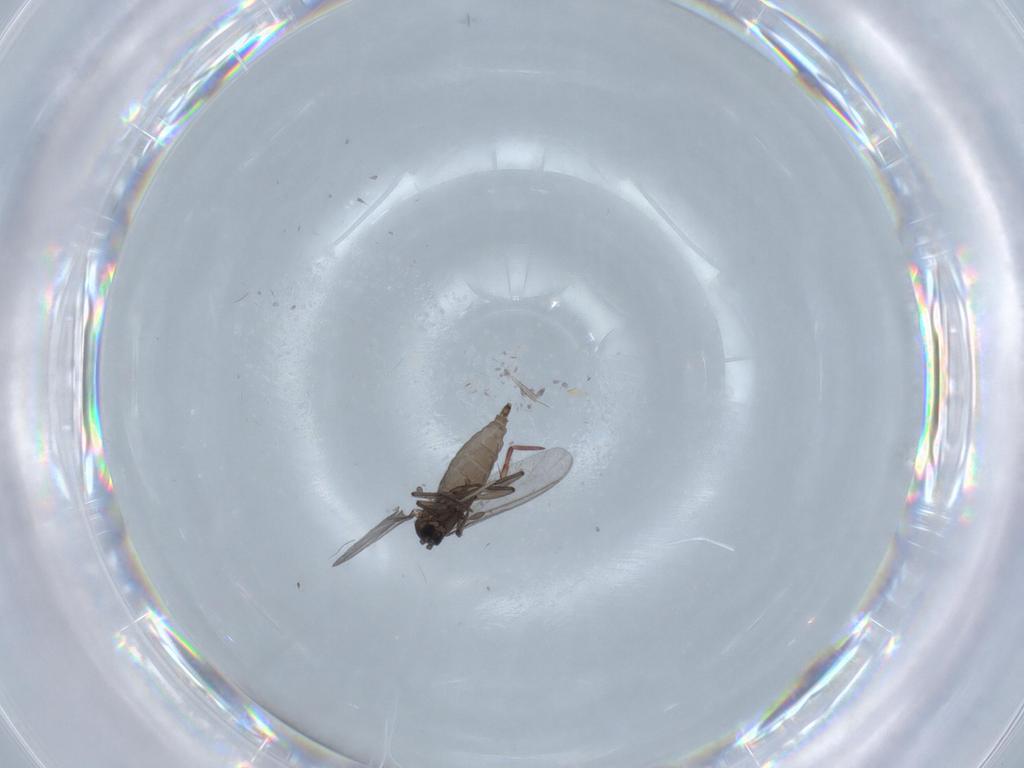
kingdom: Animalia
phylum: Arthropoda
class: Insecta
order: Diptera
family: Sciaridae
